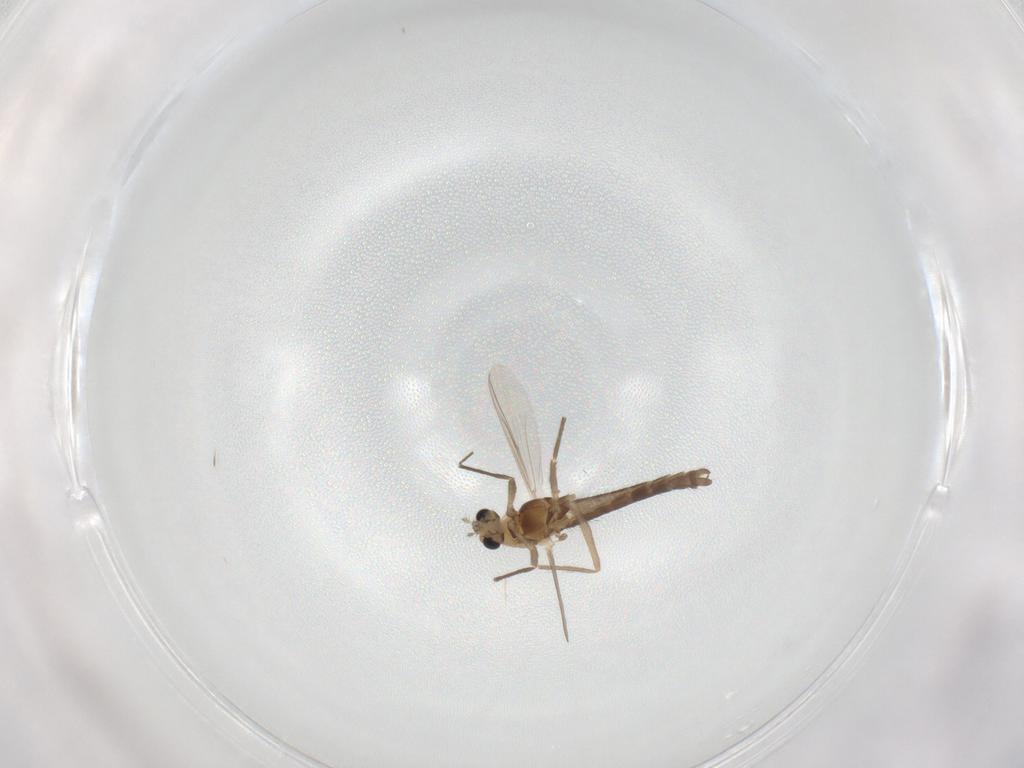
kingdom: Animalia
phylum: Arthropoda
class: Insecta
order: Diptera
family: Chironomidae
